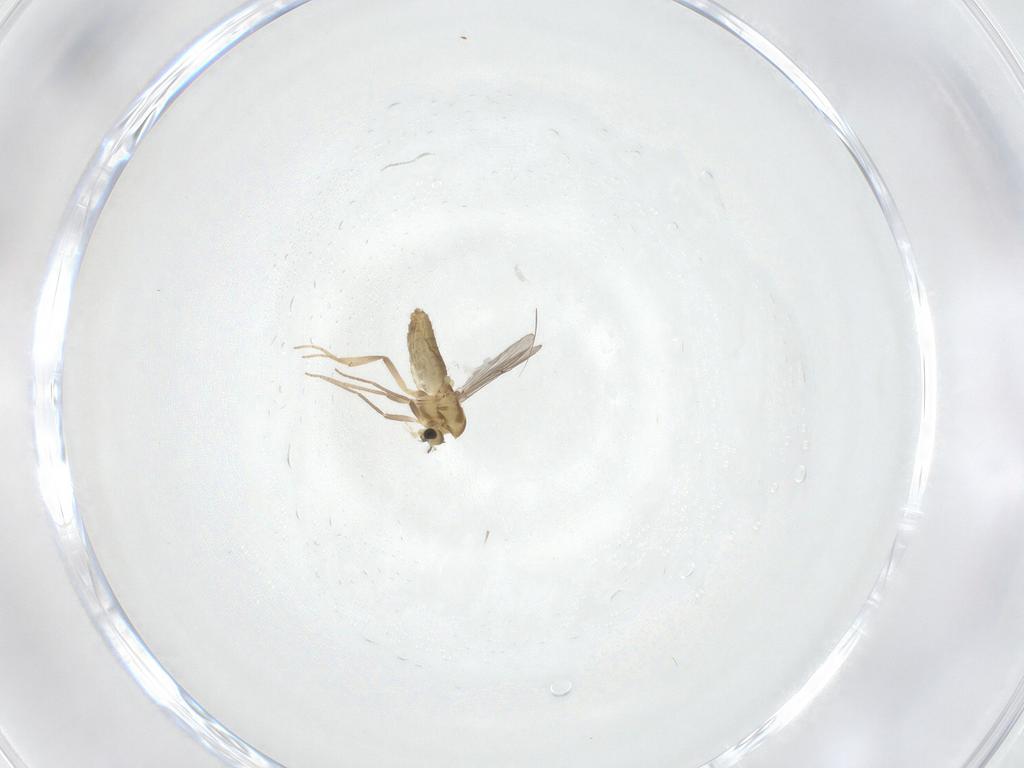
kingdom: Animalia
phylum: Arthropoda
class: Insecta
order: Diptera
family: Chironomidae
